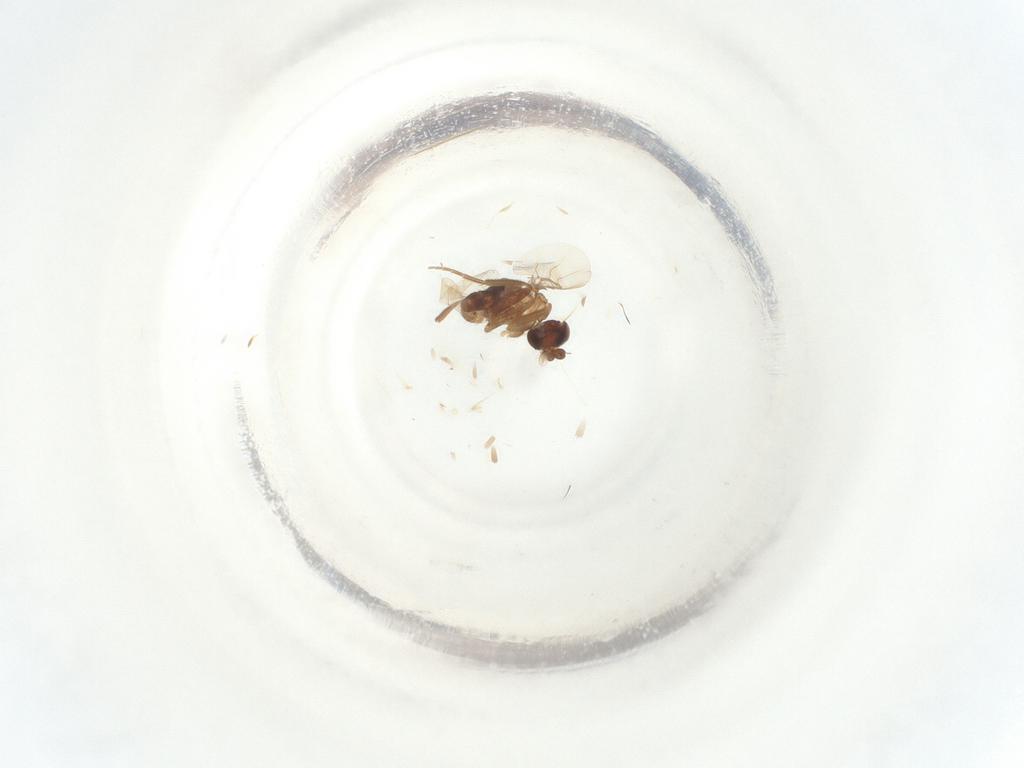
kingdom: Animalia
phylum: Arthropoda
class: Insecta
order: Diptera
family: Phoridae
